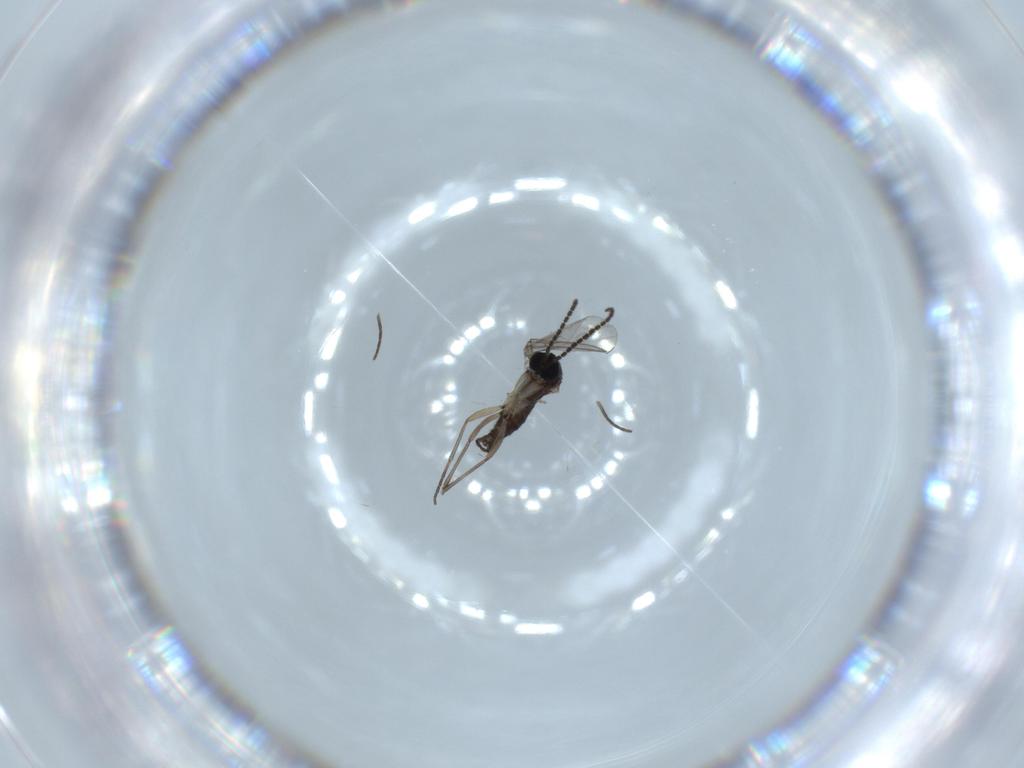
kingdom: Animalia
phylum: Arthropoda
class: Insecta
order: Diptera
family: Sciaridae
